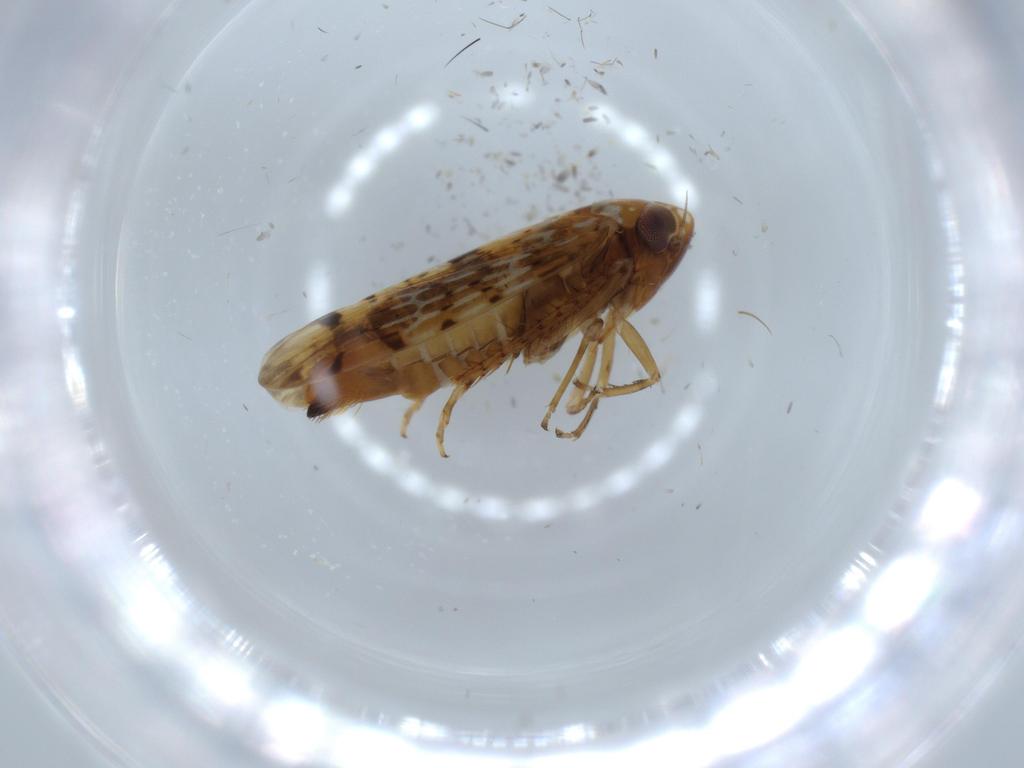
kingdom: Animalia
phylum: Arthropoda
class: Insecta
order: Hemiptera
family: Cicadellidae
